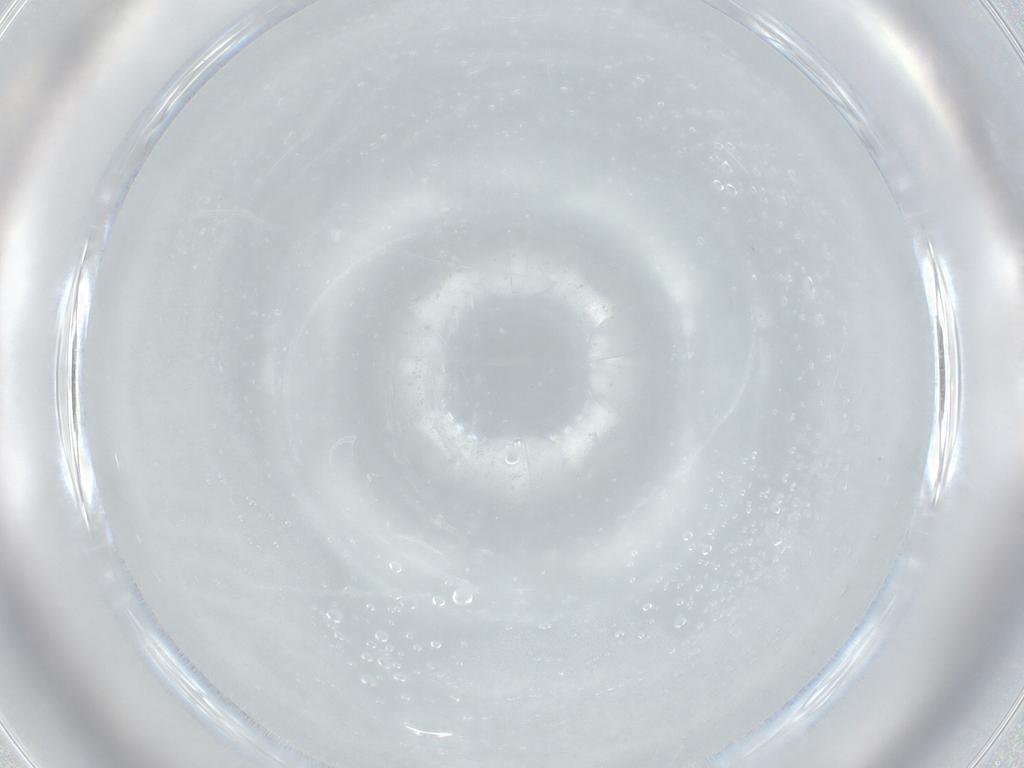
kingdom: Animalia
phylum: Arthropoda
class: Insecta
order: Diptera
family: Chironomidae
